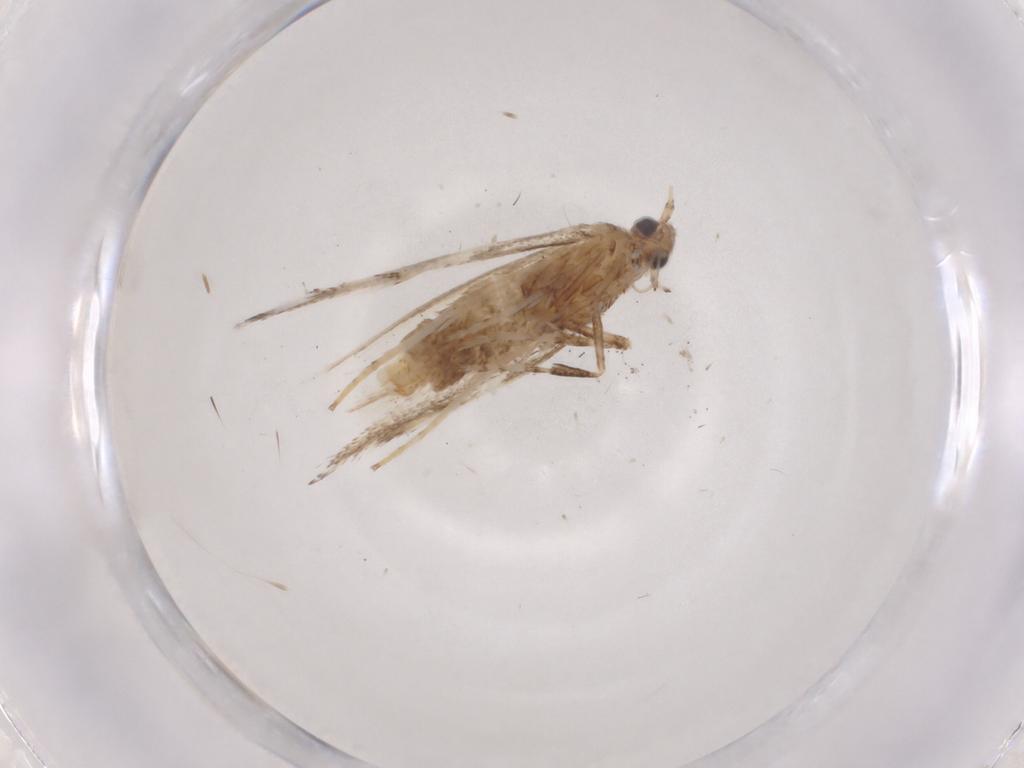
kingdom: Animalia
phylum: Arthropoda
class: Insecta
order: Lepidoptera
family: Gracillariidae
